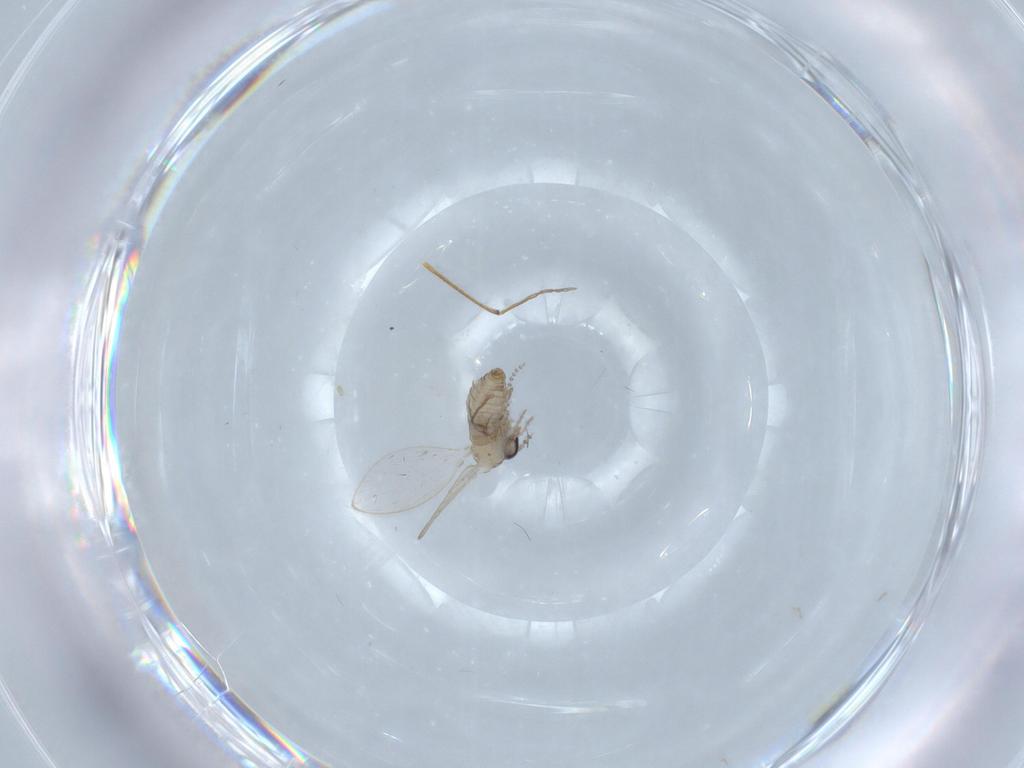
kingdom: Animalia
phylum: Arthropoda
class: Insecta
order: Diptera
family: Psychodidae
